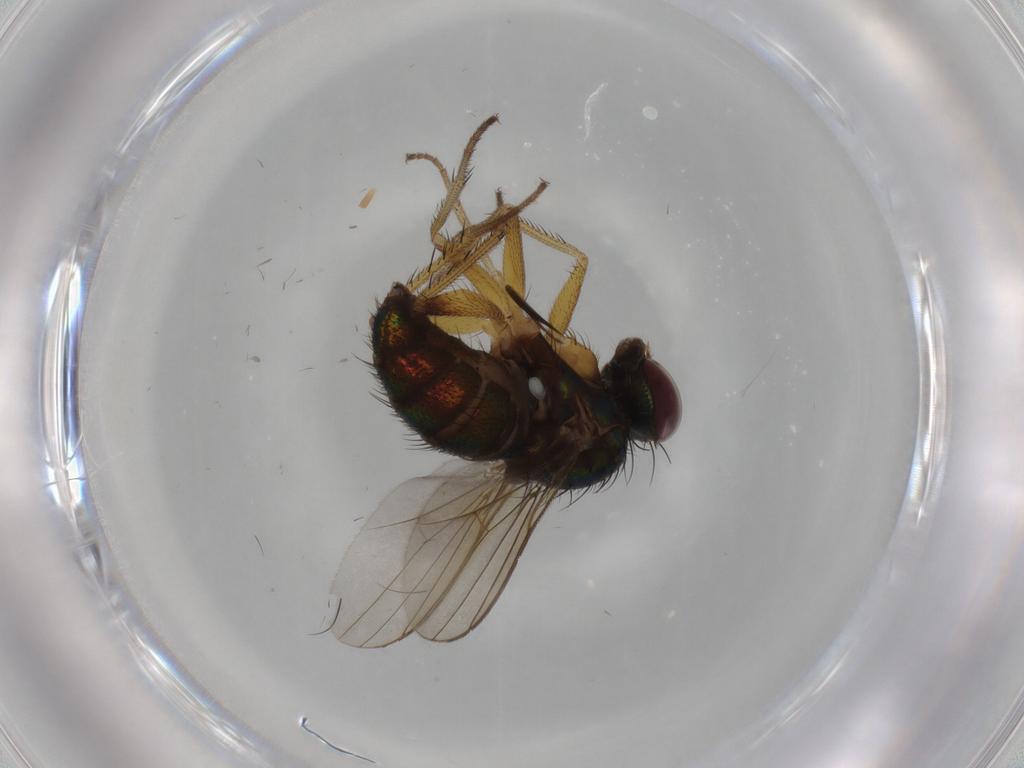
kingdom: Animalia
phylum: Arthropoda
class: Insecta
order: Diptera
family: Dolichopodidae
